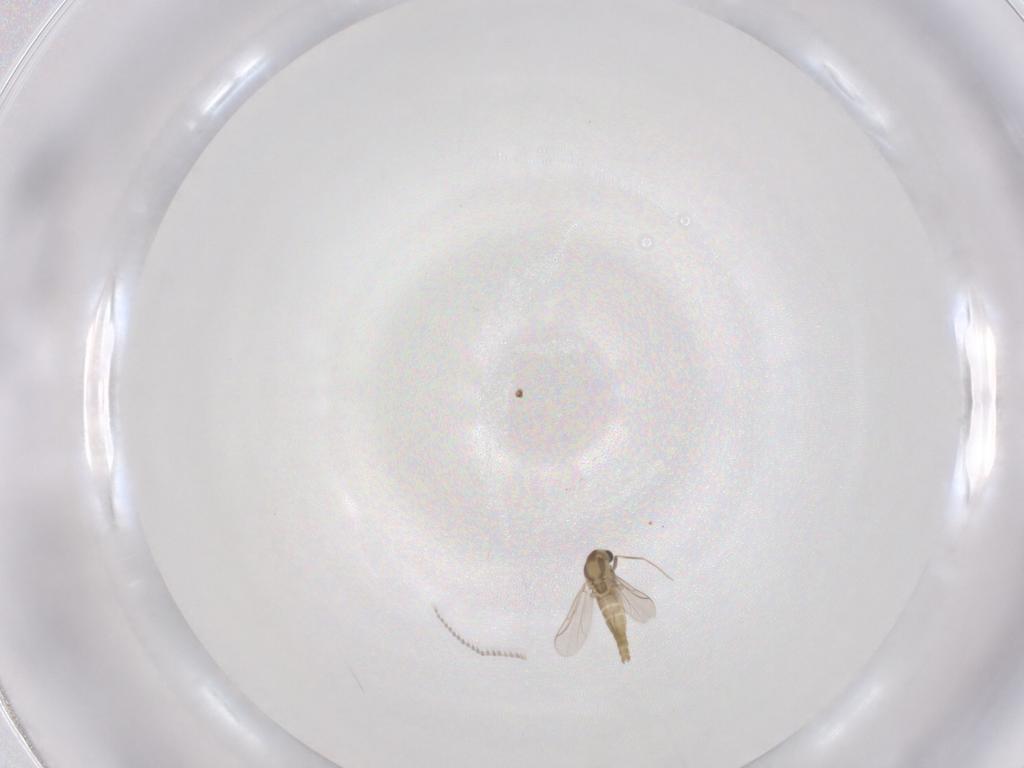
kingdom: Animalia
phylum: Arthropoda
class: Insecta
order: Diptera
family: Cecidomyiidae
